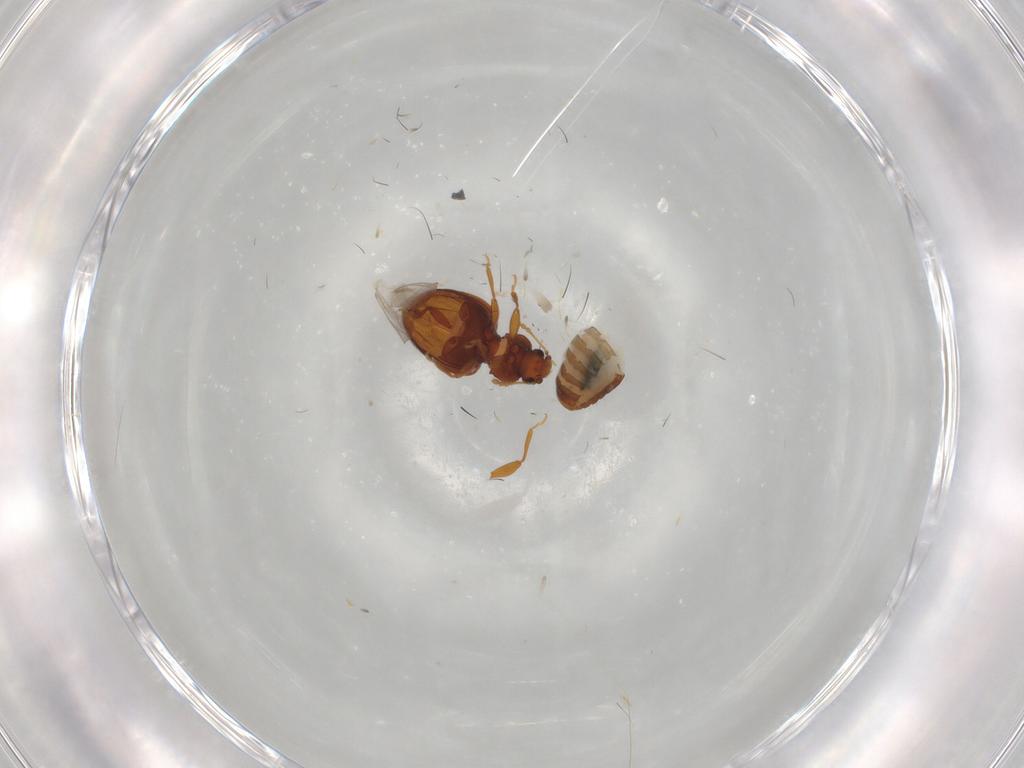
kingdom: Animalia
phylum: Arthropoda
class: Insecta
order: Coleoptera
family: Latridiidae
